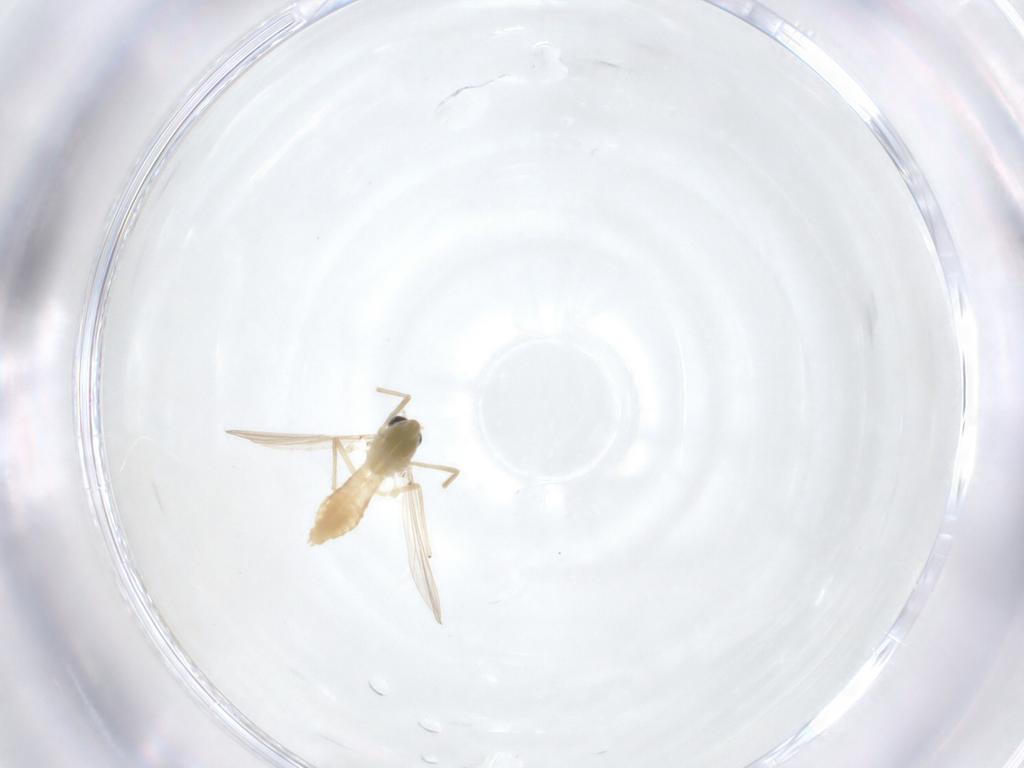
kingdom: Animalia
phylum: Arthropoda
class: Insecta
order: Diptera
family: Chironomidae
